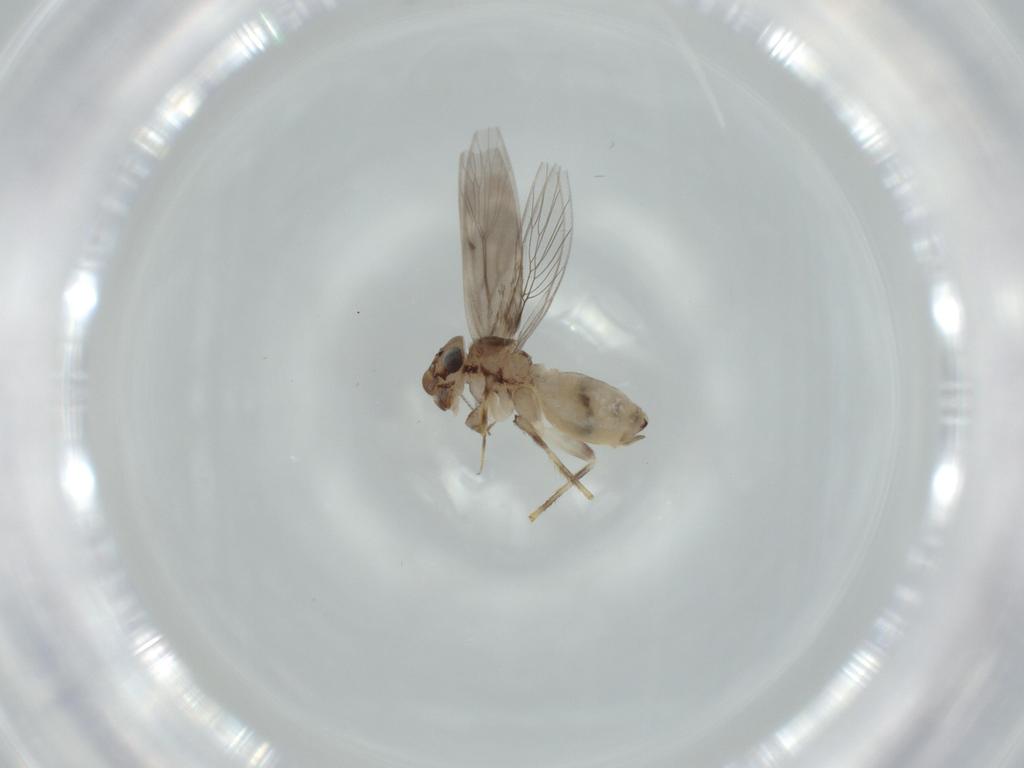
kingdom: Animalia
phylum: Arthropoda
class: Insecta
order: Psocodea
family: Lepidopsocidae
